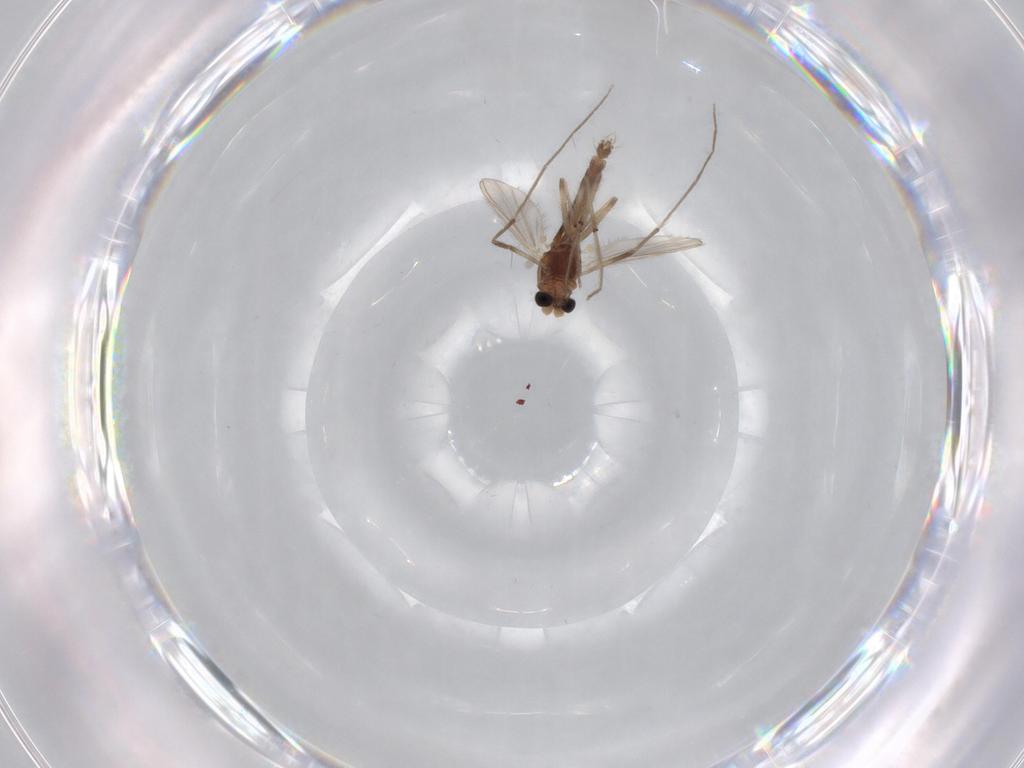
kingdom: Animalia
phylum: Arthropoda
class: Insecta
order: Diptera
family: Chironomidae
